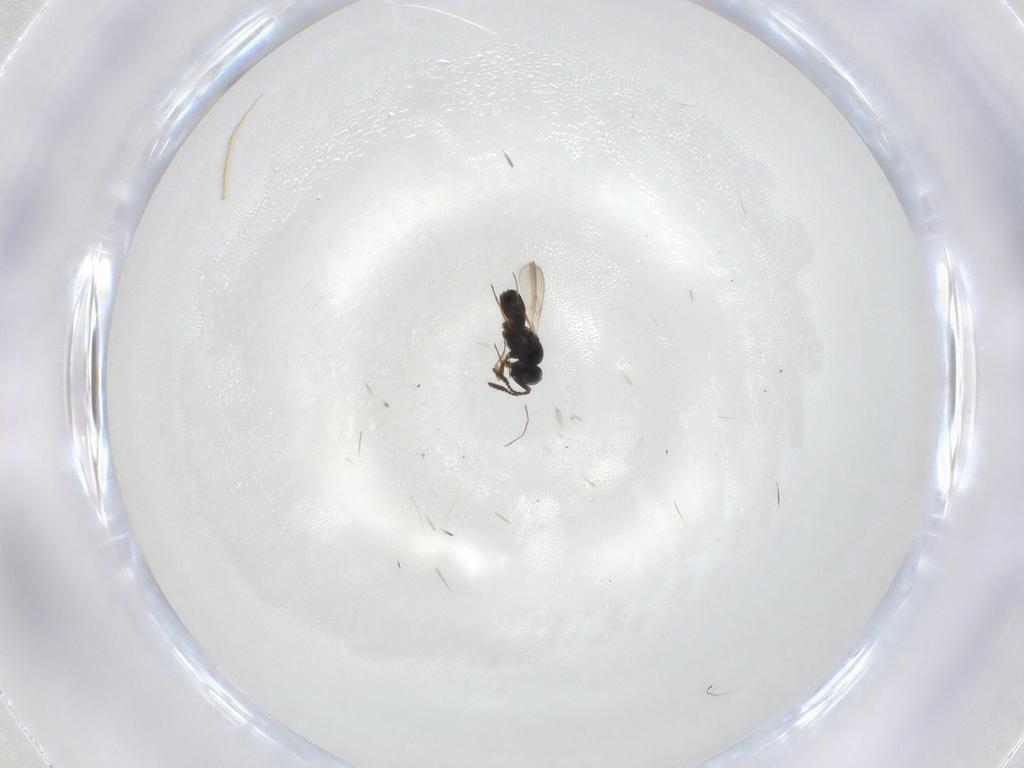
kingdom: Animalia
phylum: Arthropoda
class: Insecta
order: Hymenoptera
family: Scelionidae
